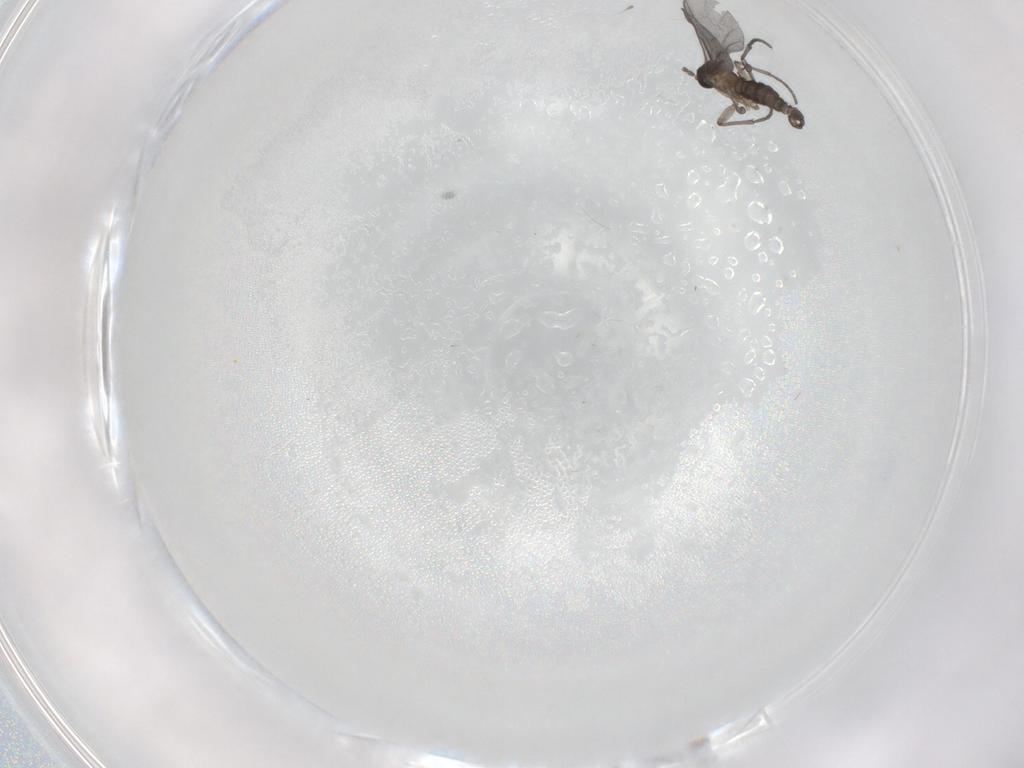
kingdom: Animalia
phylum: Arthropoda
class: Insecta
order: Diptera
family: Sciaridae
